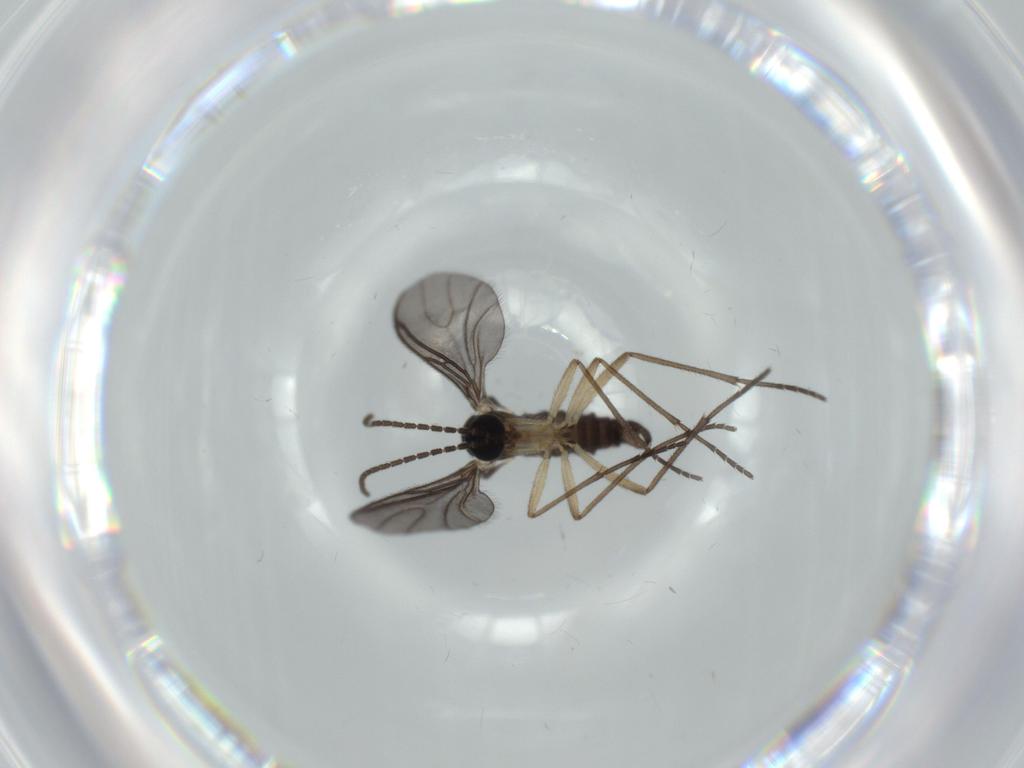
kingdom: Animalia
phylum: Arthropoda
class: Insecta
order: Diptera
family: Sciaridae
